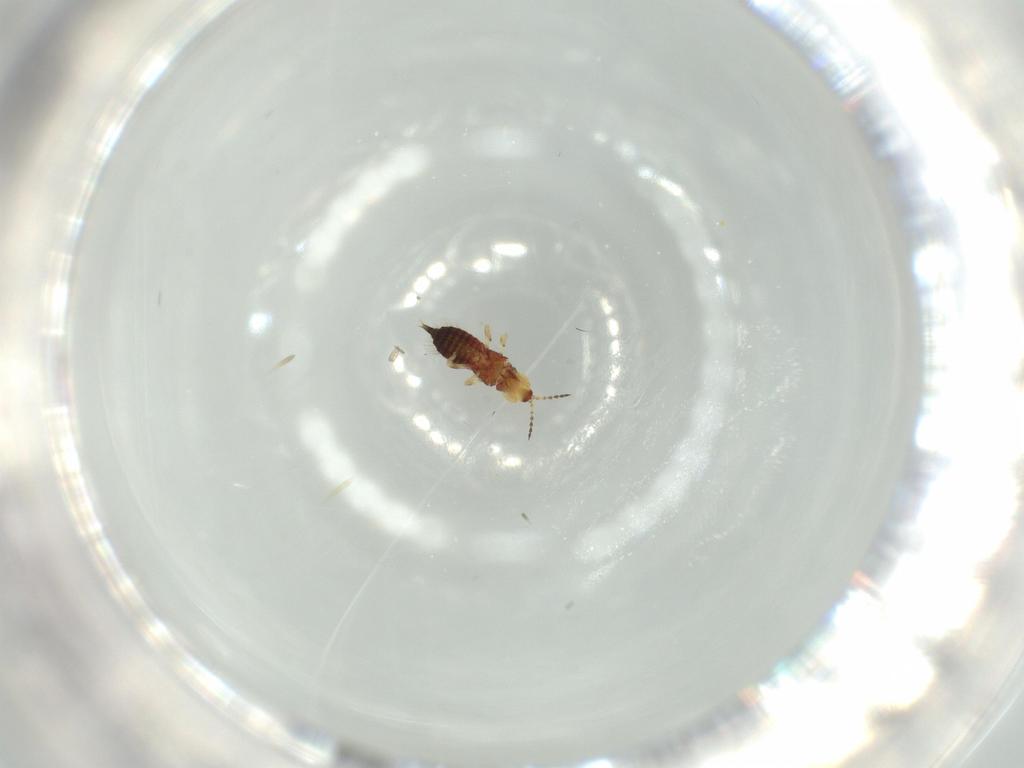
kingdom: Animalia
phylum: Arthropoda
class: Insecta
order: Thysanoptera
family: Phlaeothripidae
